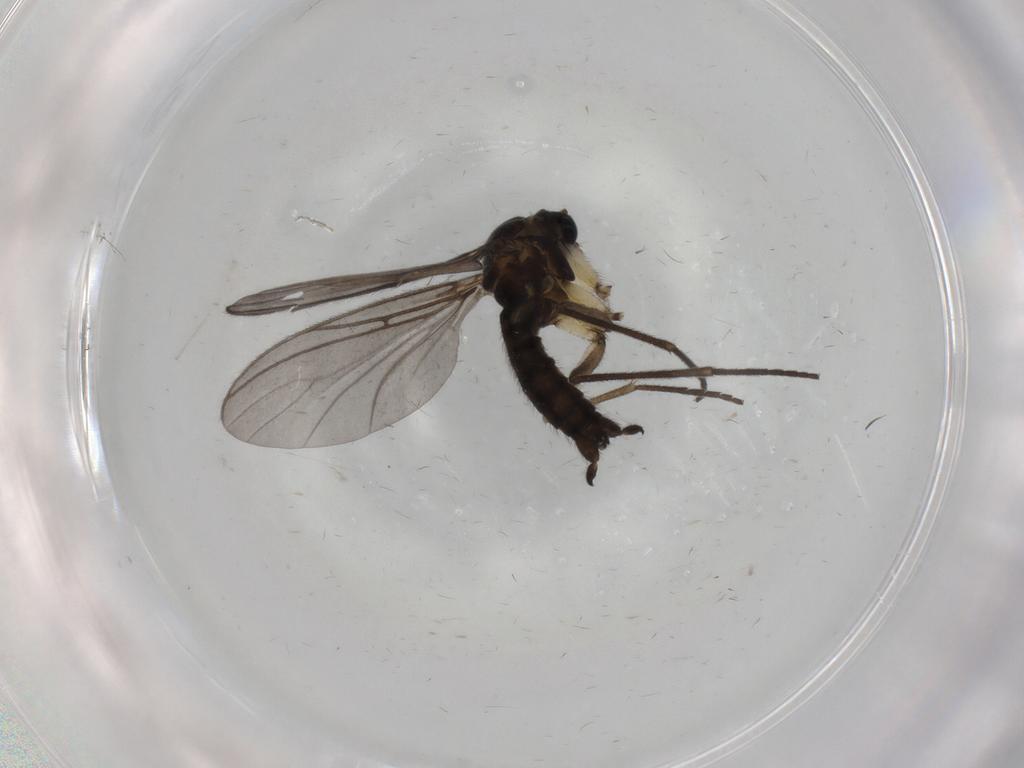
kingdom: Animalia
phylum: Arthropoda
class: Insecta
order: Diptera
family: Sciaridae
